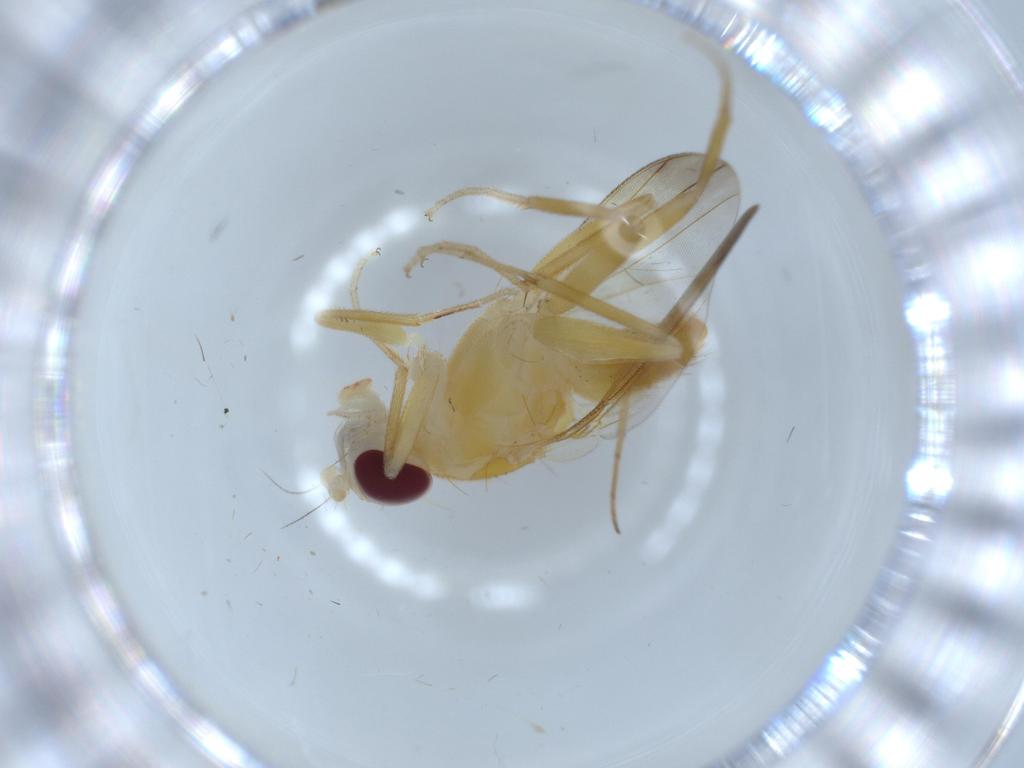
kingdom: Animalia
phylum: Arthropoda
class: Insecta
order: Diptera
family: Clusiidae
